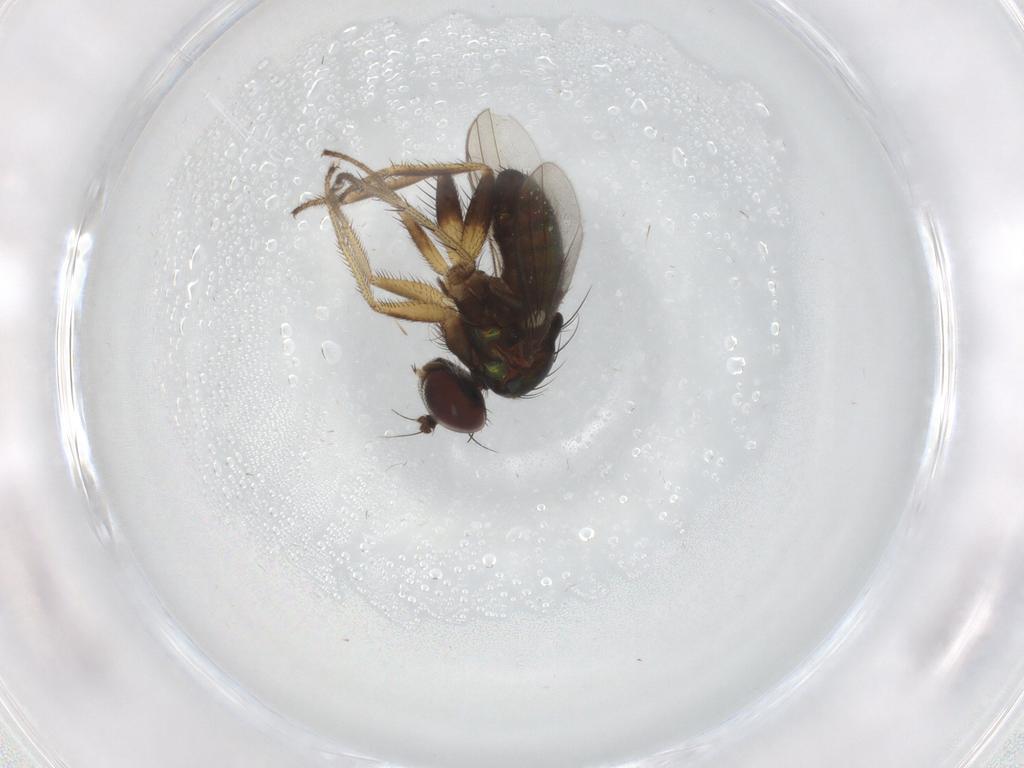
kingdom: Animalia
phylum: Arthropoda
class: Insecta
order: Diptera
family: Dolichopodidae
